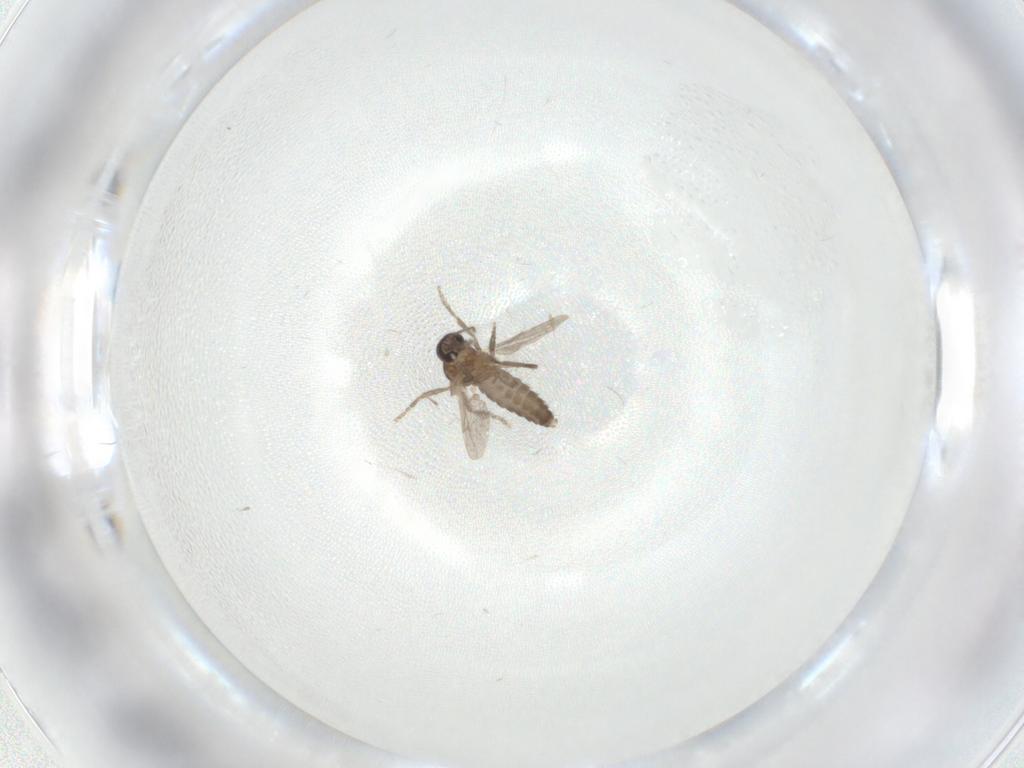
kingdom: Animalia
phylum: Arthropoda
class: Insecta
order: Diptera
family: Ceratopogonidae
